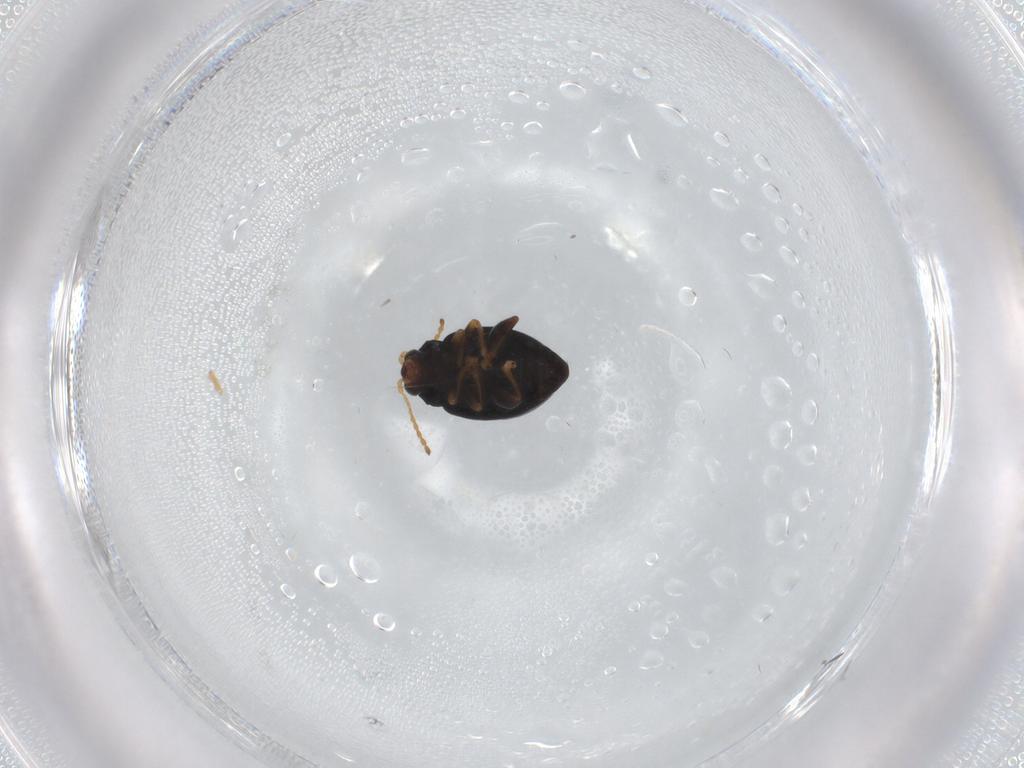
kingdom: Animalia
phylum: Arthropoda
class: Insecta
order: Coleoptera
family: Chrysomelidae
